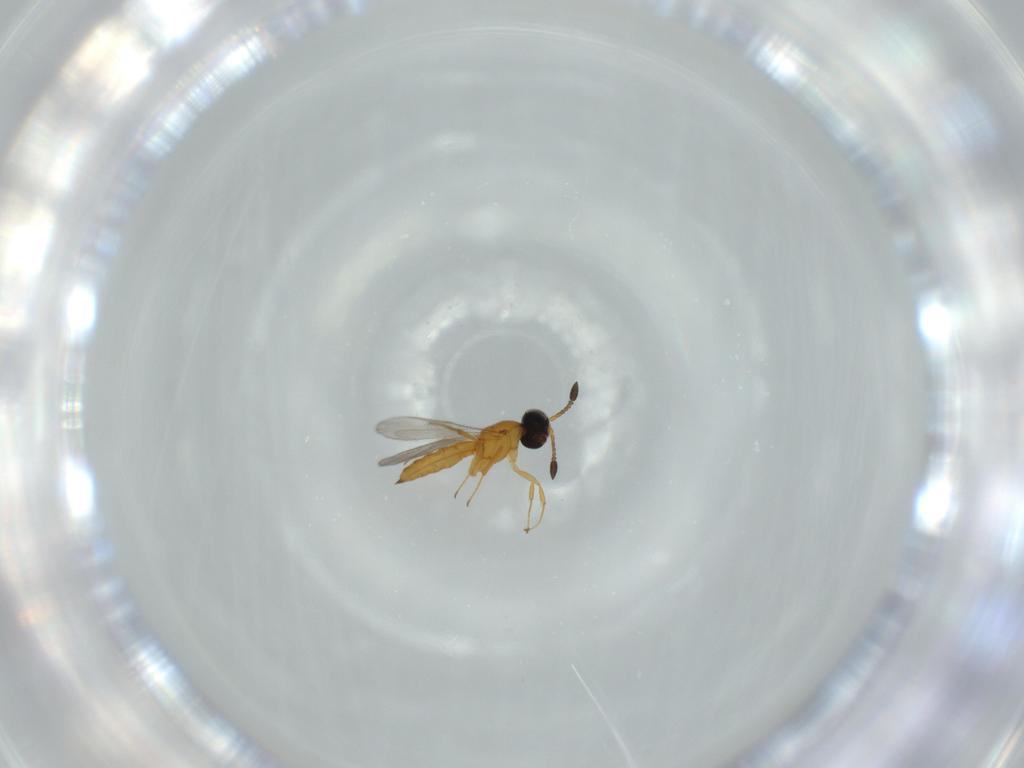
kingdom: Animalia
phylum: Arthropoda
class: Insecta
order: Hymenoptera
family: Scelionidae
